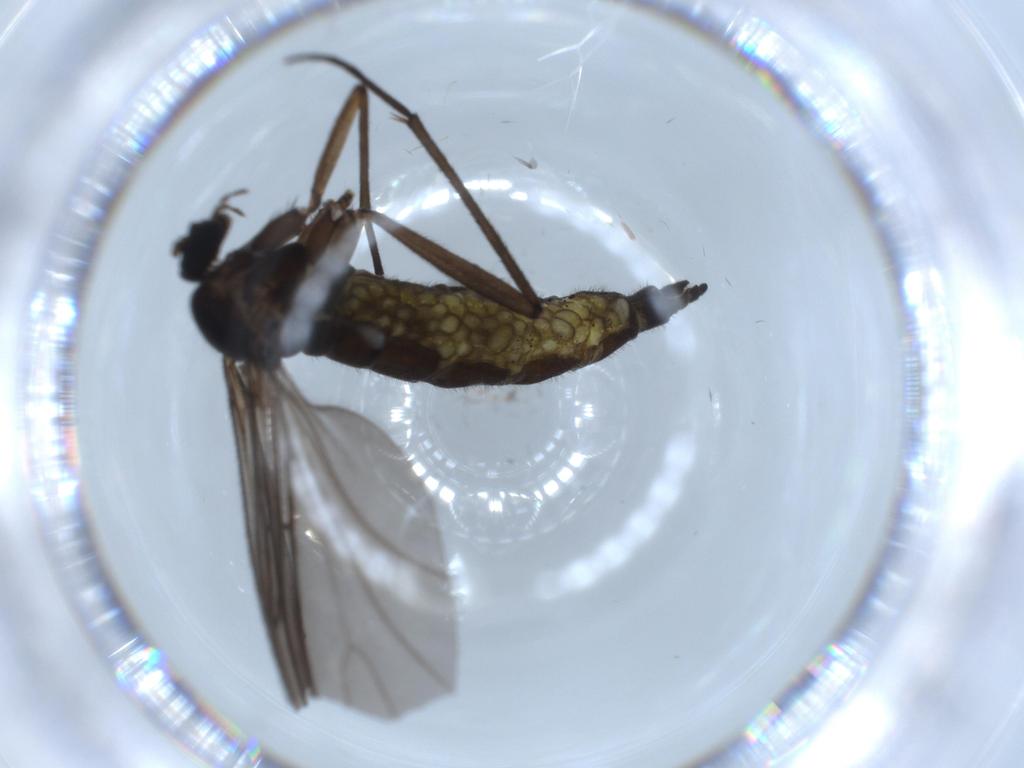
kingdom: Animalia
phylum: Arthropoda
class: Insecta
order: Diptera
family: Sciaridae
